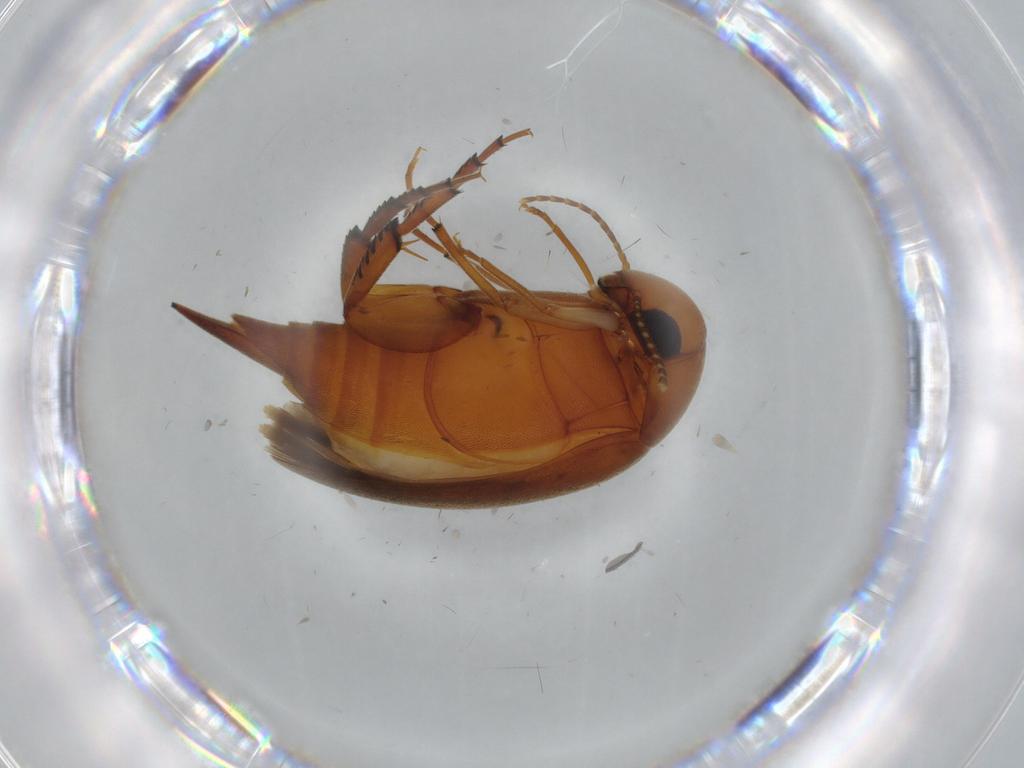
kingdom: Animalia
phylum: Arthropoda
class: Insecta
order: Coleoptera
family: Mordellidae
